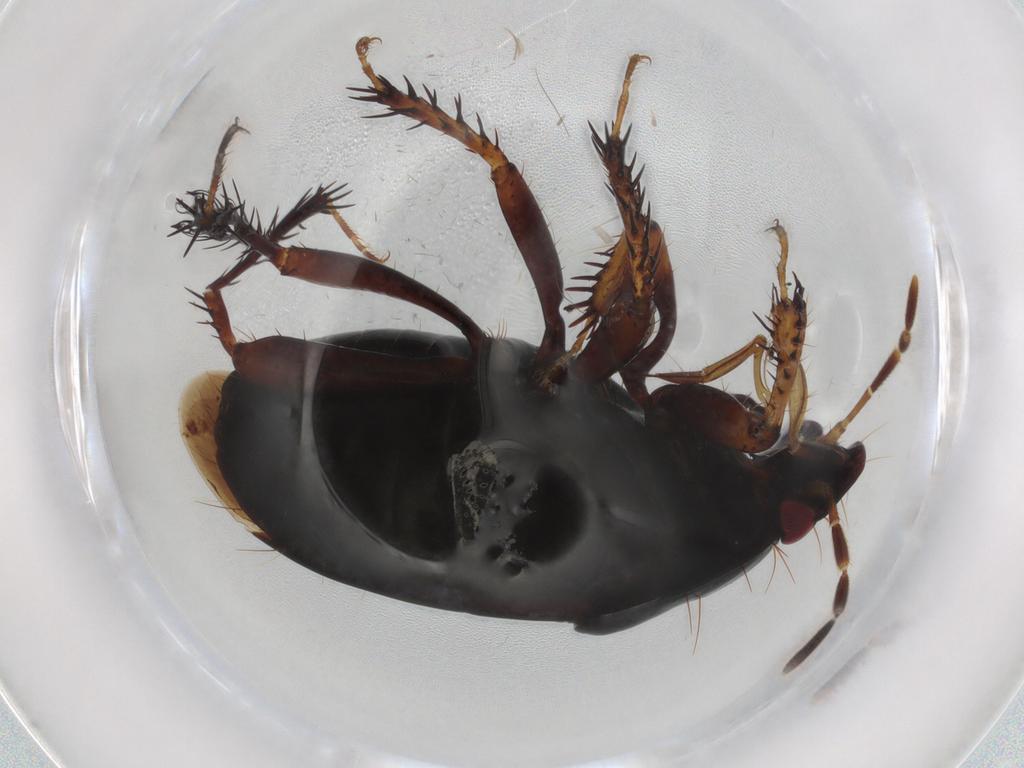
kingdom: Animalia
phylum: Arthropoda
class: Insecta
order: Hemiptera
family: Cydnidae
